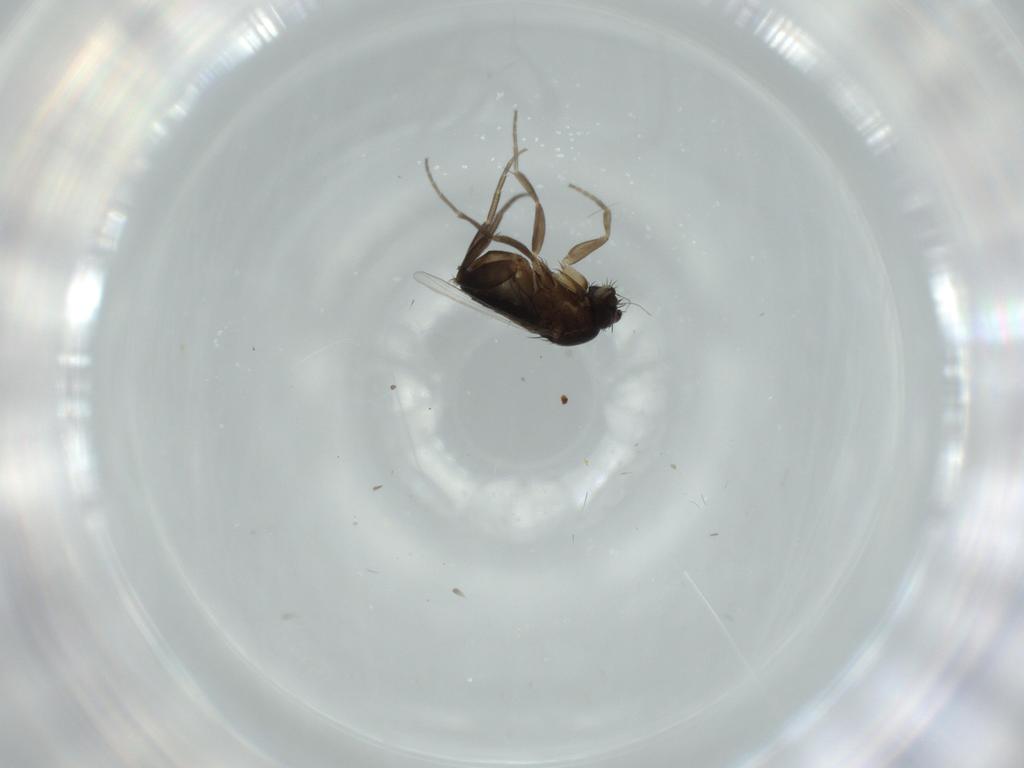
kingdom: Animalia
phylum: Arthropoda
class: Insecta
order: Diptera
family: Phoridae
